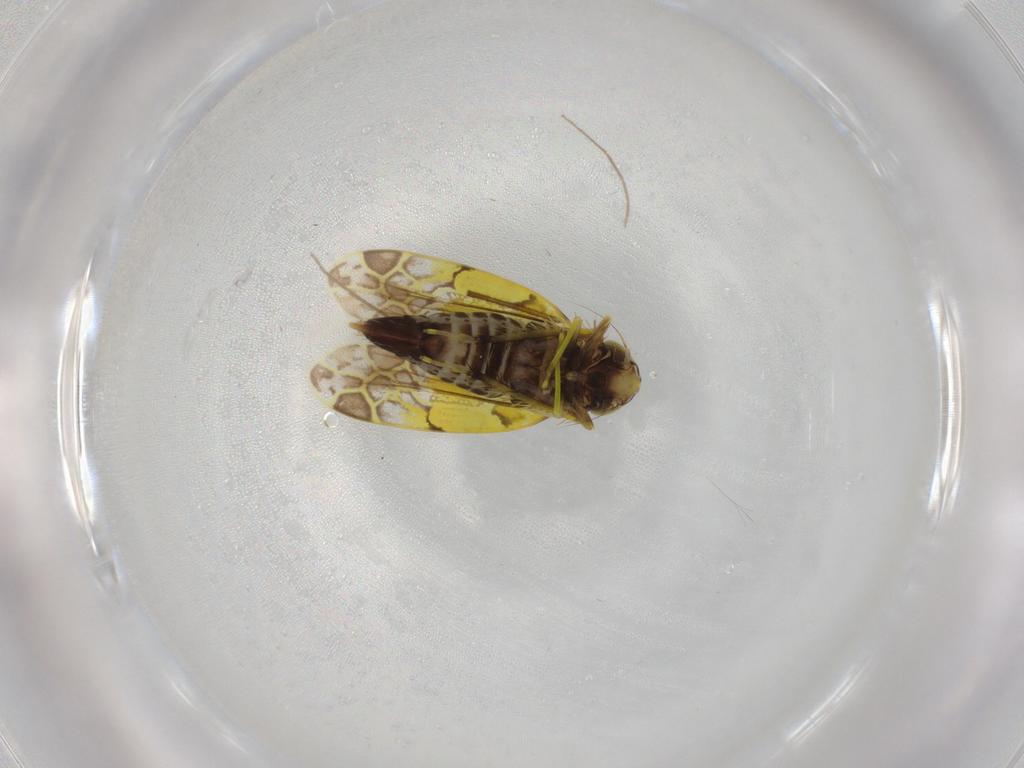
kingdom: Animalia
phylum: Arthropoda
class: Insecta
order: Hemiptera
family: Cicadellidae
